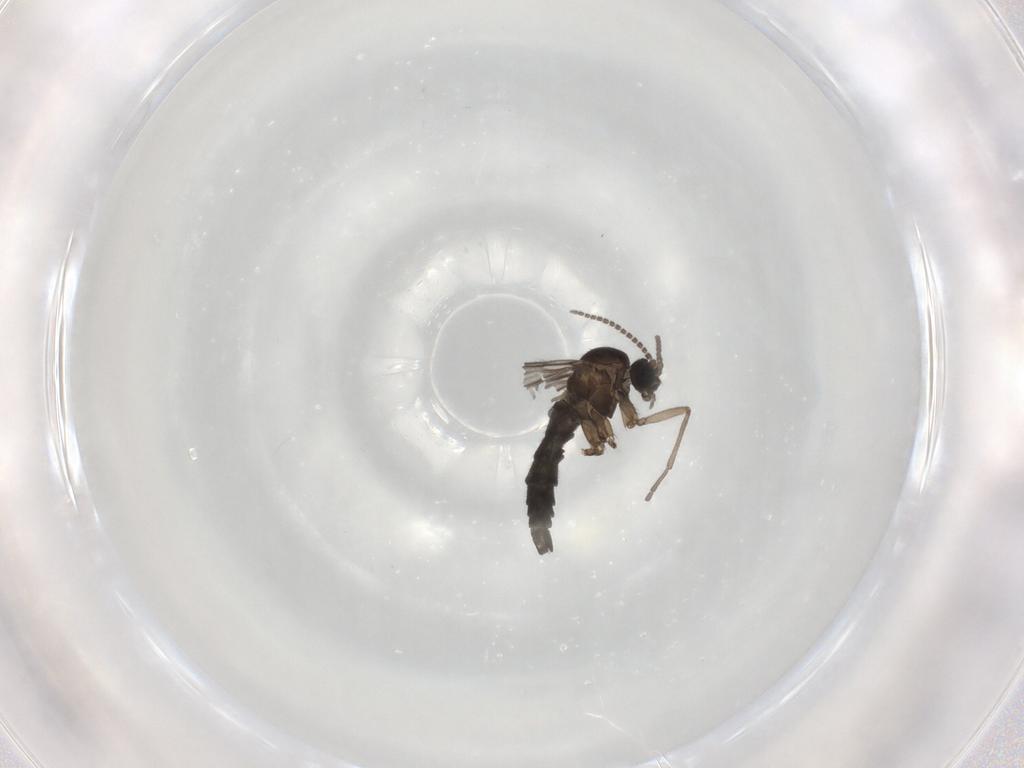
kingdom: Animalia
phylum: Arthropoda
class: Insecta
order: Diptera
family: Sciaridae
